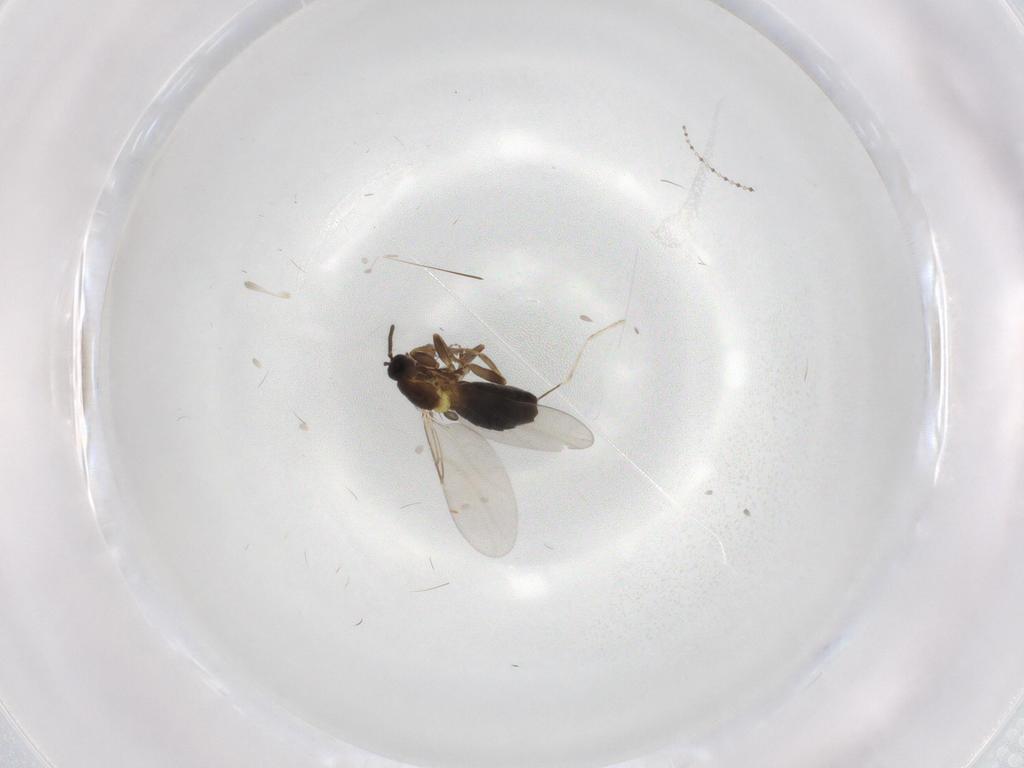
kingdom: Animalia
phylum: Arthropoda
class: Insecta
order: Diptera
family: Scatopsidae
